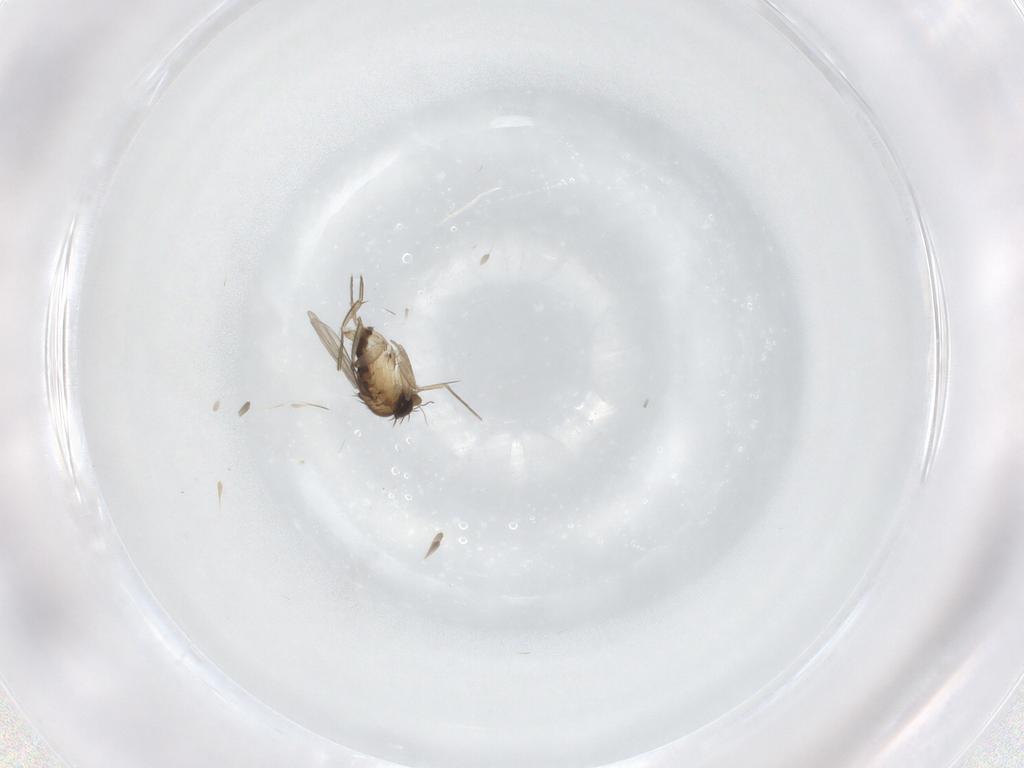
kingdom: Animalia
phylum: Arthropoda
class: Insecta
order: Diptera
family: Phoridae
